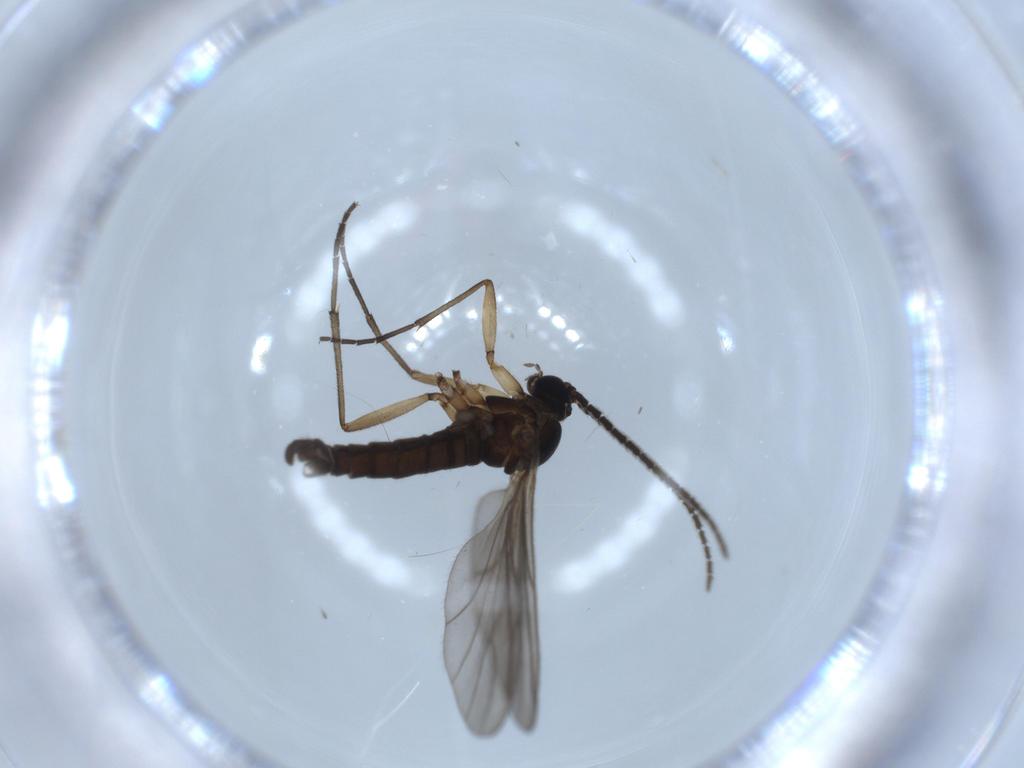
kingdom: Animalia
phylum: Arthropoda
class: Insecta
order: Diptera
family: Sciaridae
